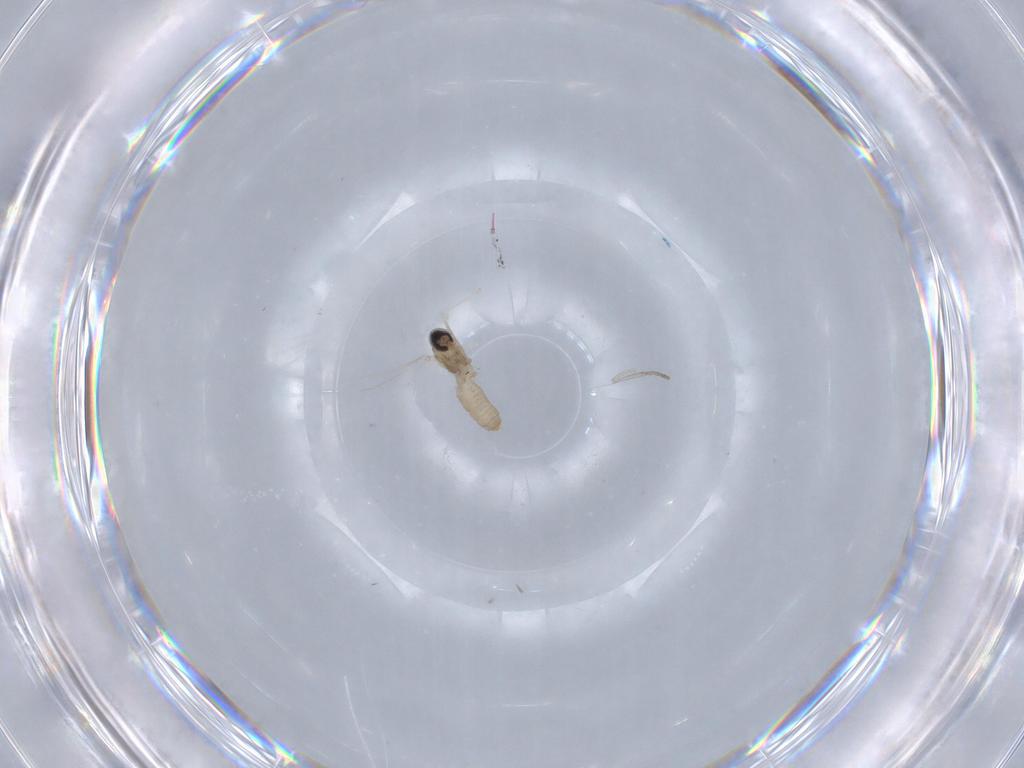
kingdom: Animalia
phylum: Arthropoda
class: Insecta
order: Diptera
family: Cecidomyiidae
